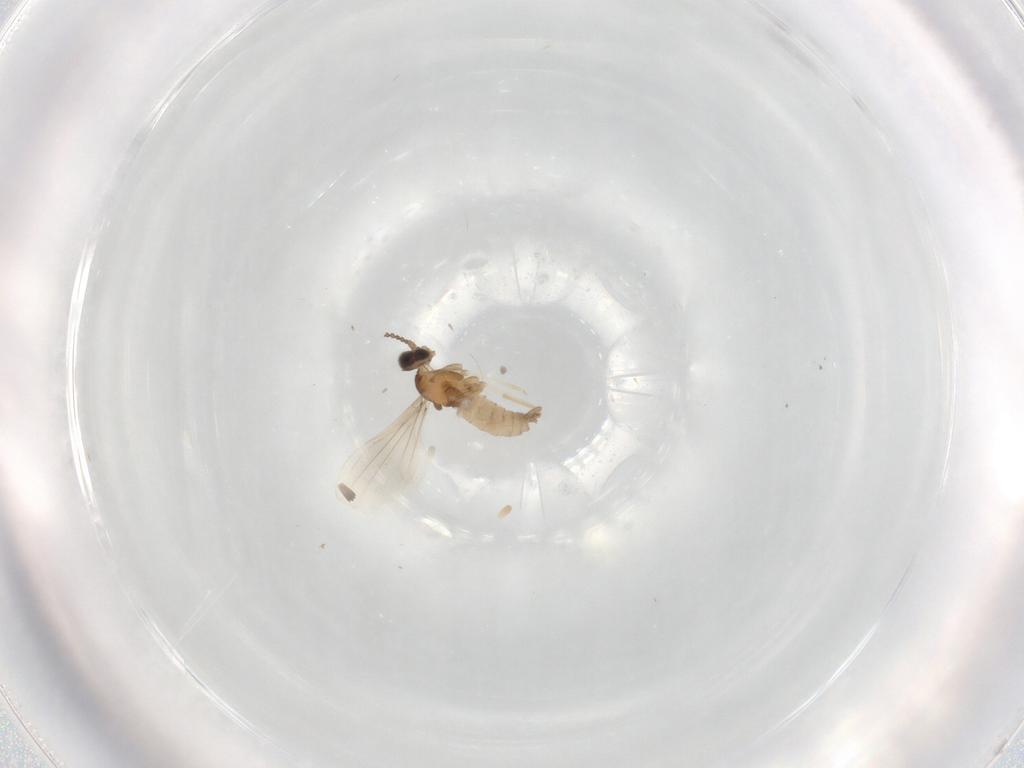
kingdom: Animalia
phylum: Arthropoda
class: Insecta
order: Diptera
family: Cecidomyiidae
